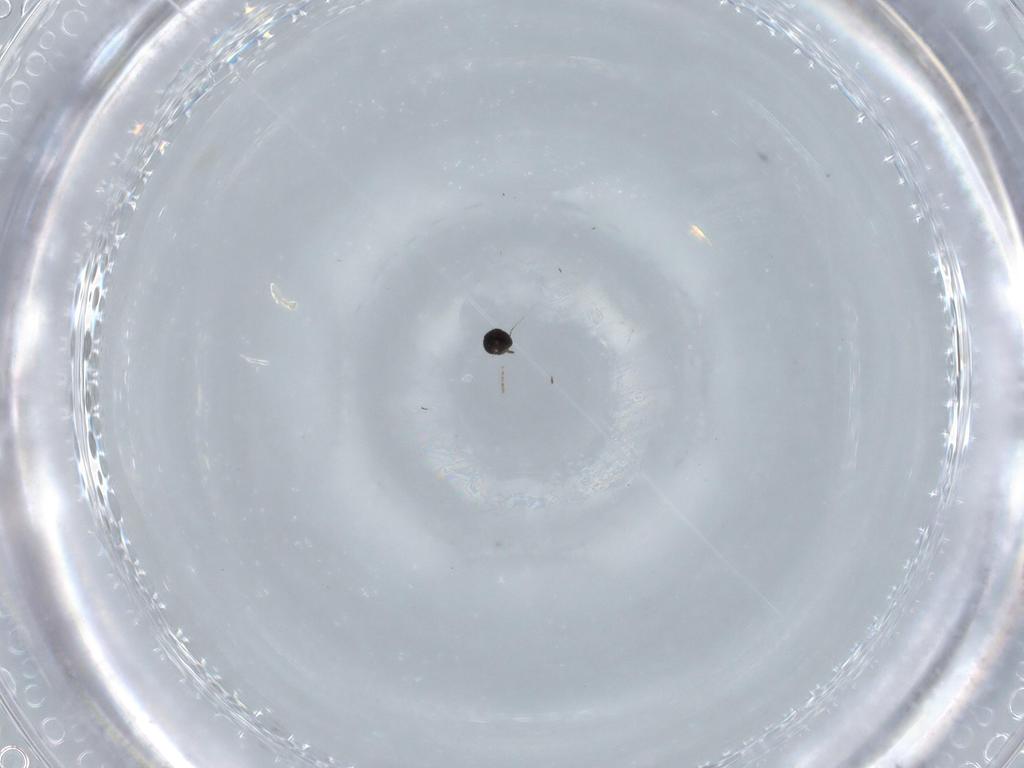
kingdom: Animalia
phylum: Arthropoda
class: Insecta
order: Diptera
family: Phoridae
